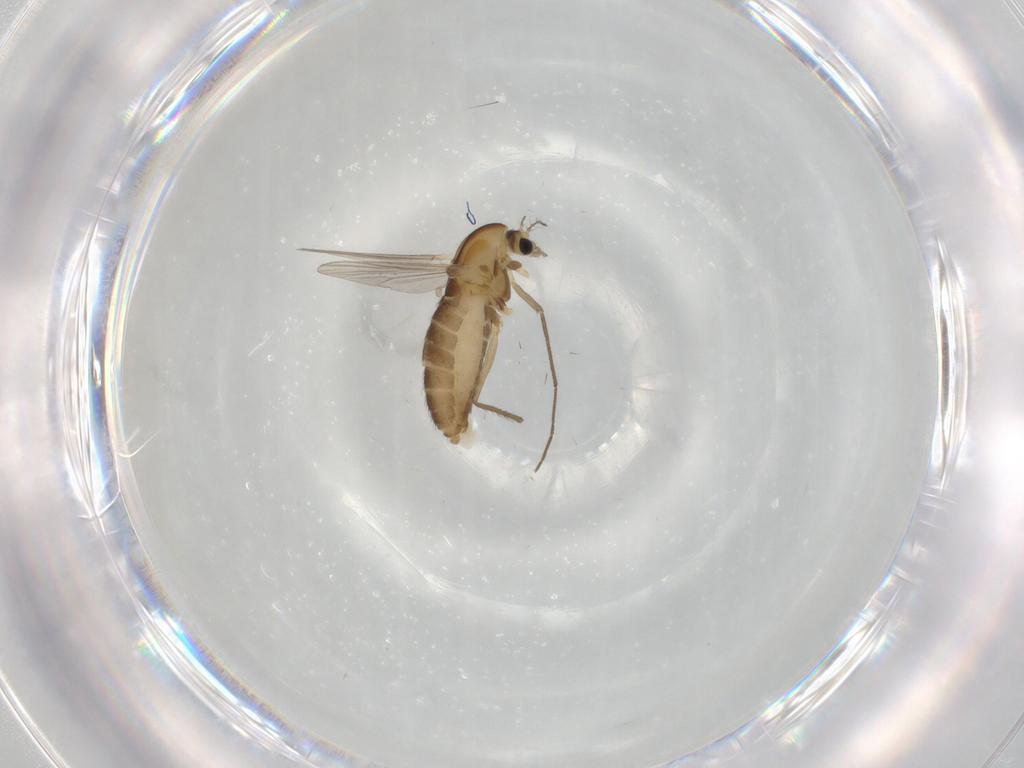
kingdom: Animalia
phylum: Arthropoda
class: Insecta
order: Diptera
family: Chironomidae
